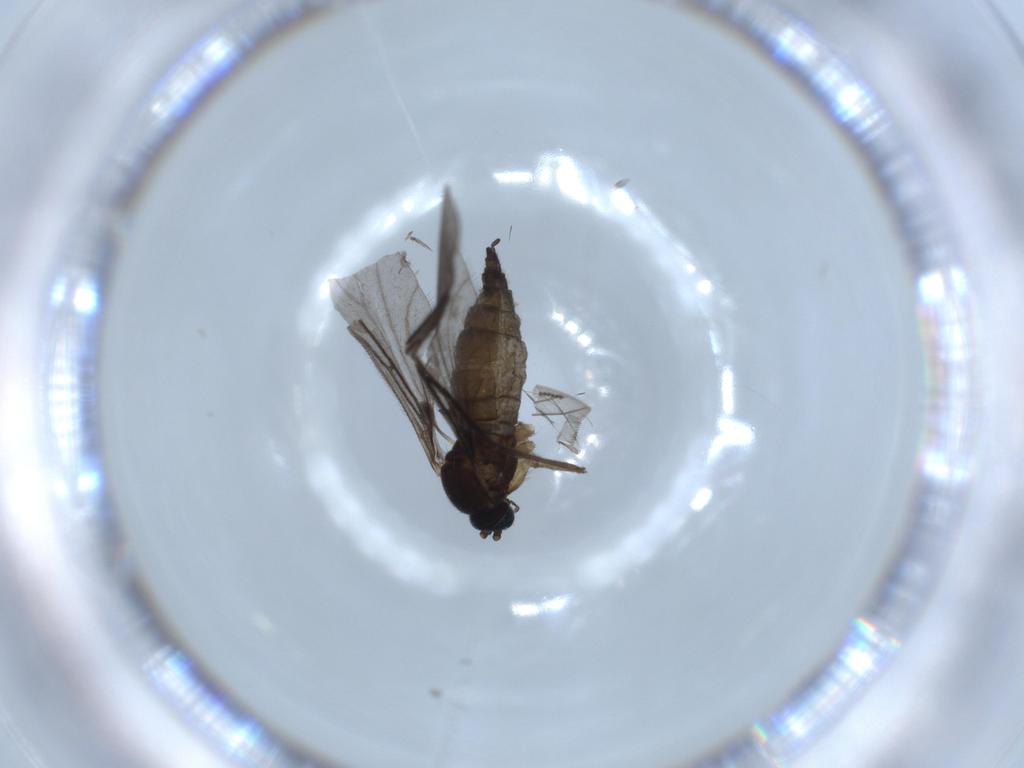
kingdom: Animalia
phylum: Arthropoda
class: Insecta
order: Diptera
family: Sciaridae
